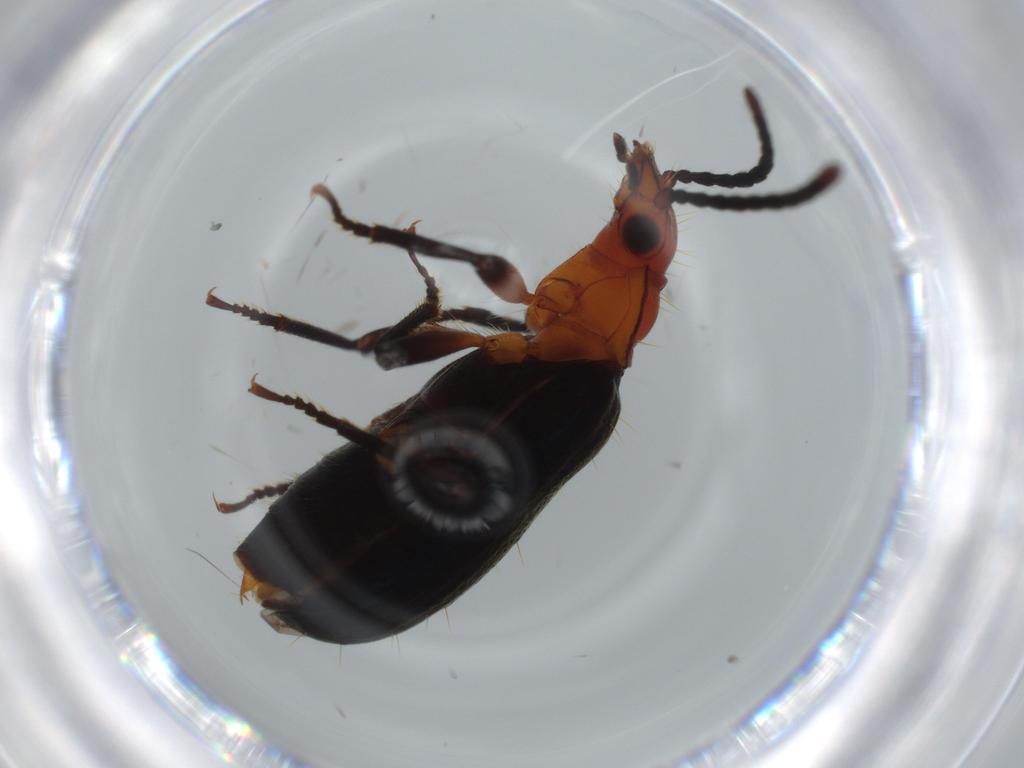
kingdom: Animalia
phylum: Arthropoda
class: Insecta
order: Coleoptera
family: Carabidae
